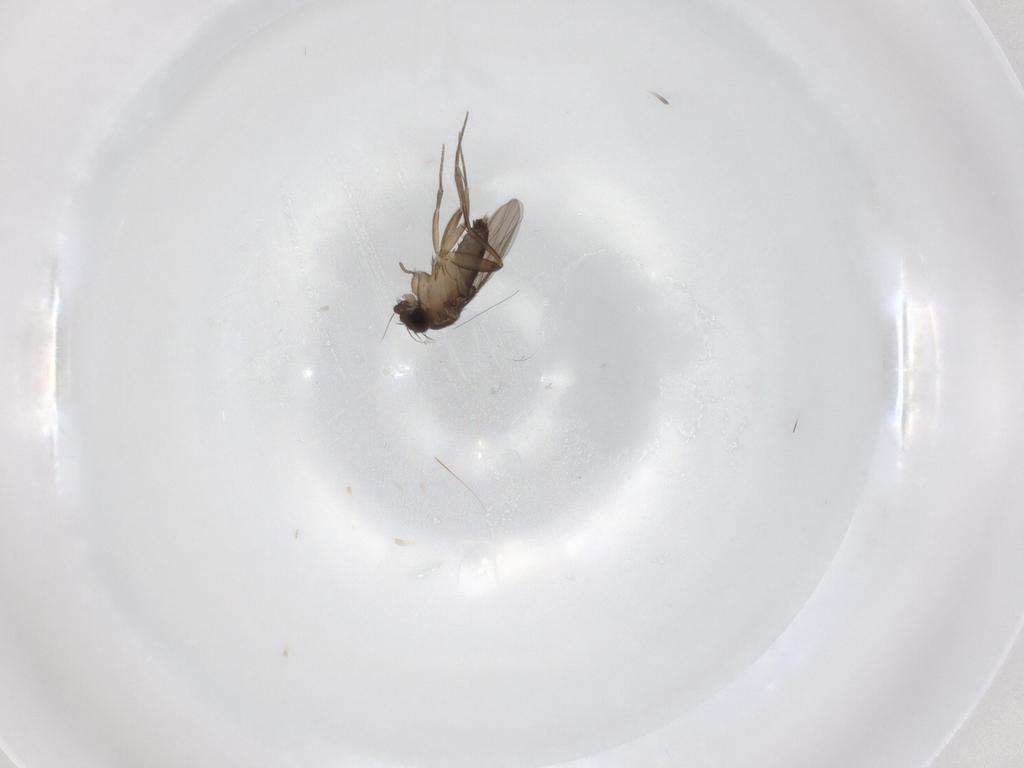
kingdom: Animalia
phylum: Arthropoda
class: Insecta
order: Diptera
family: Phoridae
